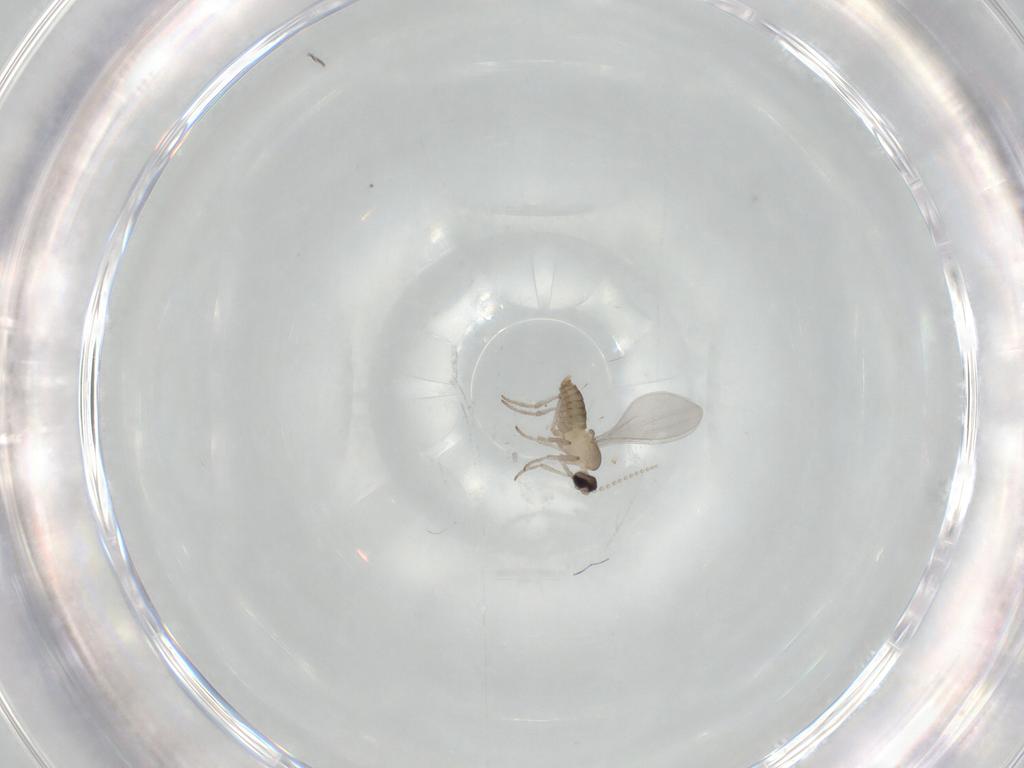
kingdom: Animalia
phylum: Arthropoda
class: Insecta
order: Diptera
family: Cecidomyiidae
